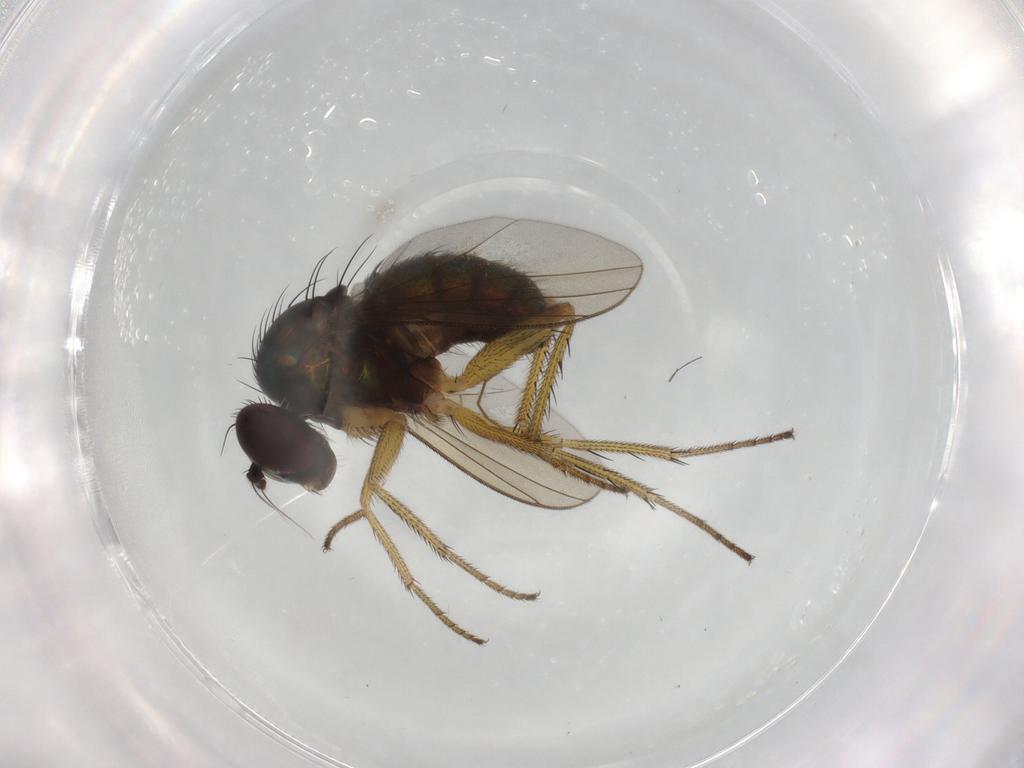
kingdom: Animalia
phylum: Arthropoda
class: Insecta
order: Diptera
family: Dolichopodidae
